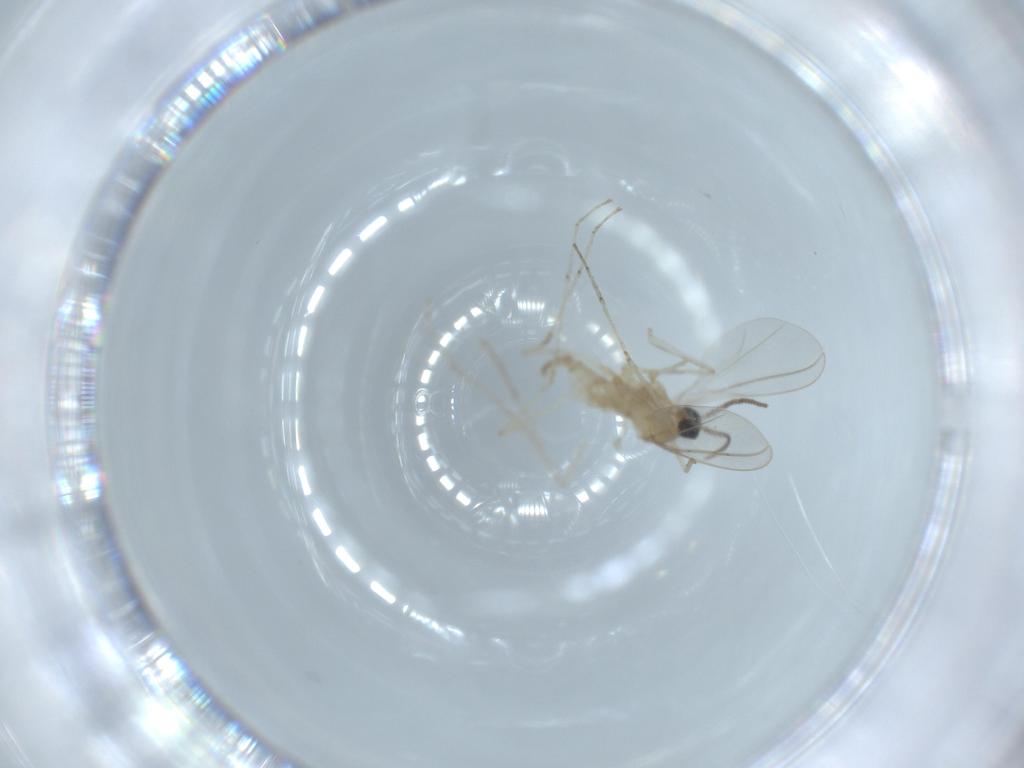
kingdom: Animalia
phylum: Arthropoda
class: Insecta
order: Diptera
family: Cecidomyiidae
